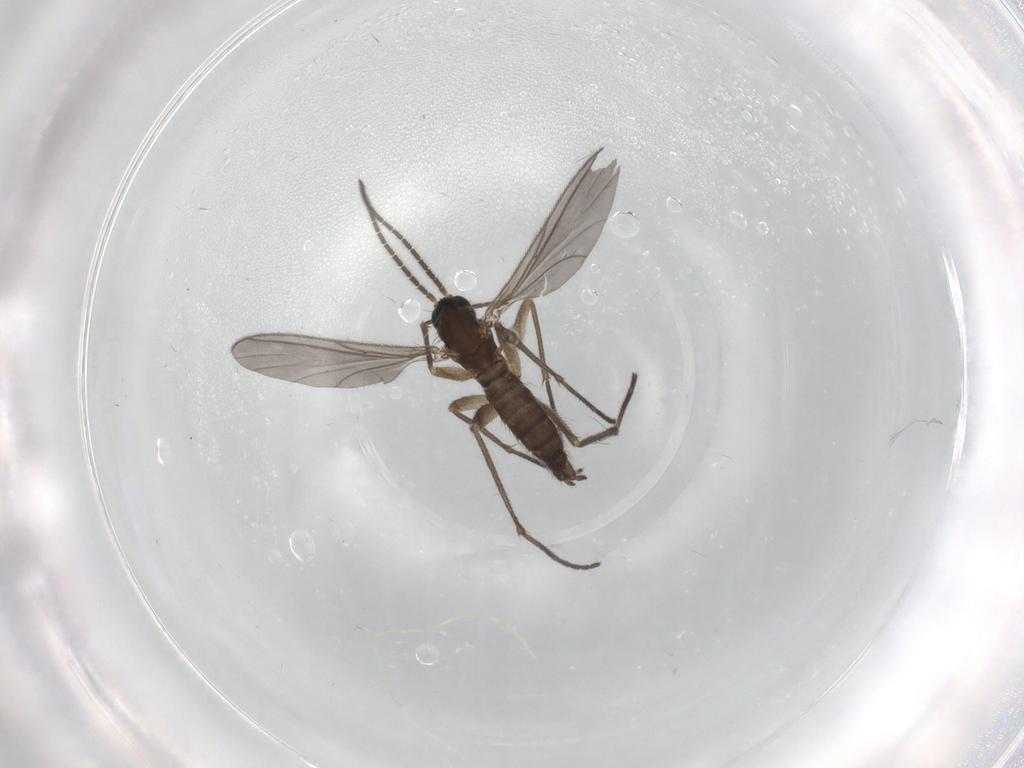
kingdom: Animalia
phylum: Arthropoda
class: Insecta
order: Diptera
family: Sciaridae
